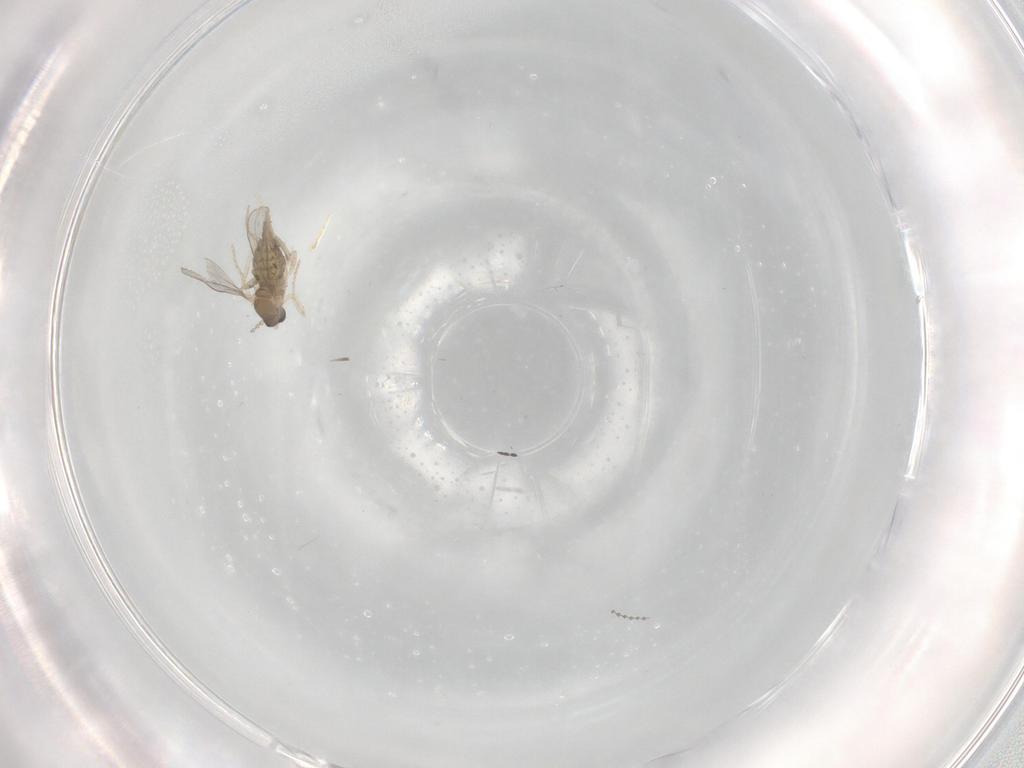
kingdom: Animalia
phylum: Arthropoda
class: Insecta
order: Diptera
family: Cecidomyiidae
